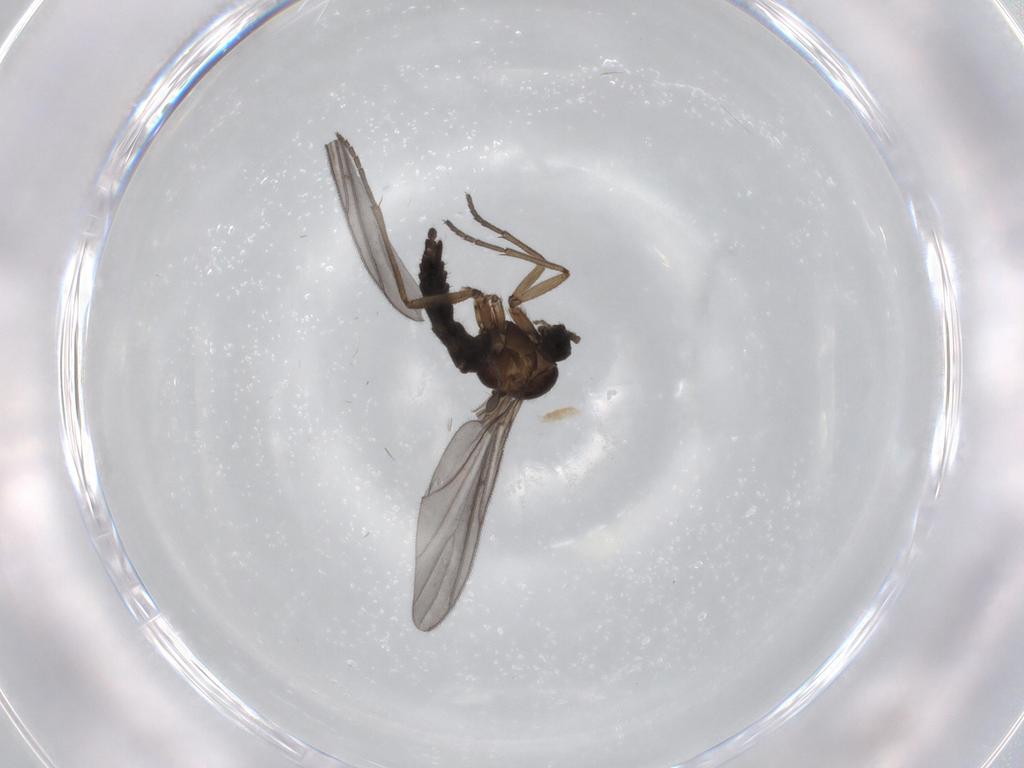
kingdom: Animalia
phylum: Arthropoda
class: Insecta
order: Diptera
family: Sciaridae
